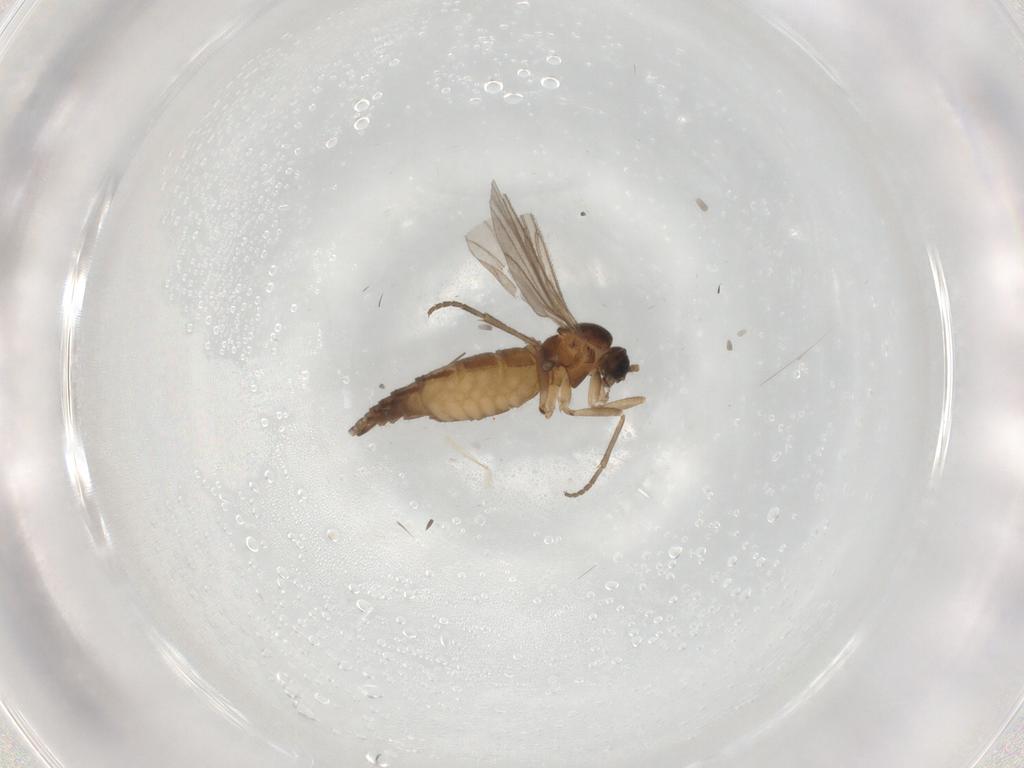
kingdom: Animalia
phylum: Arthropoda
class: Insecta
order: Diptera
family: Sciaridae
